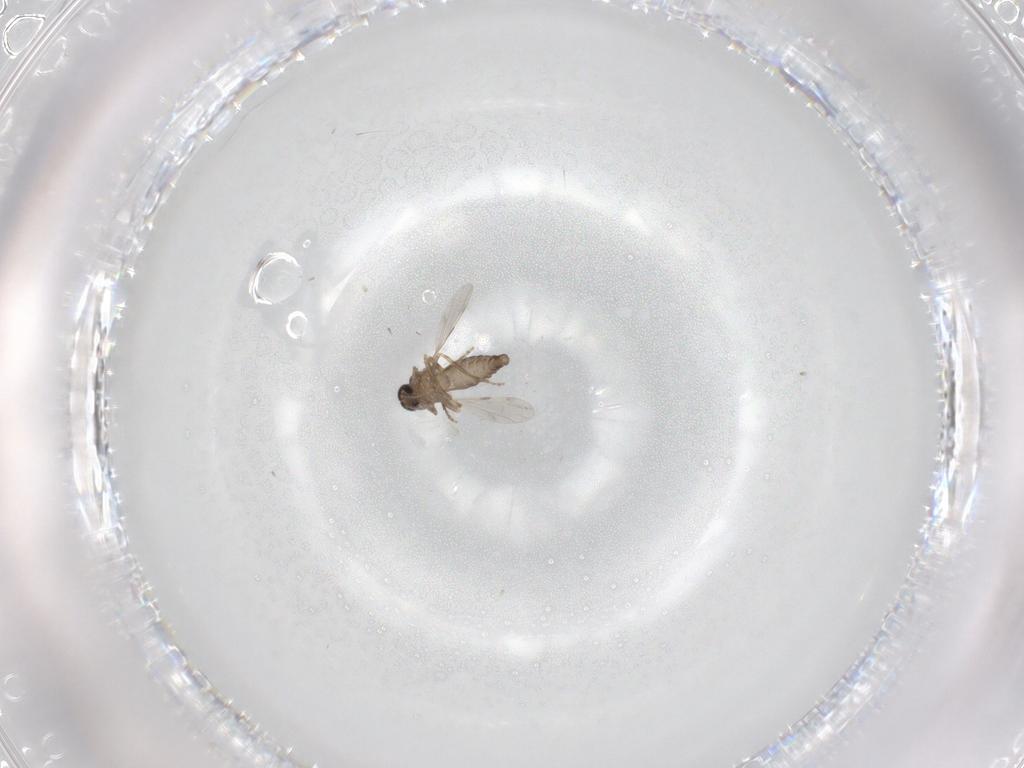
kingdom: Animalia
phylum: Arthropoda
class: Insecta
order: Diptera
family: Ceratopogonidae
